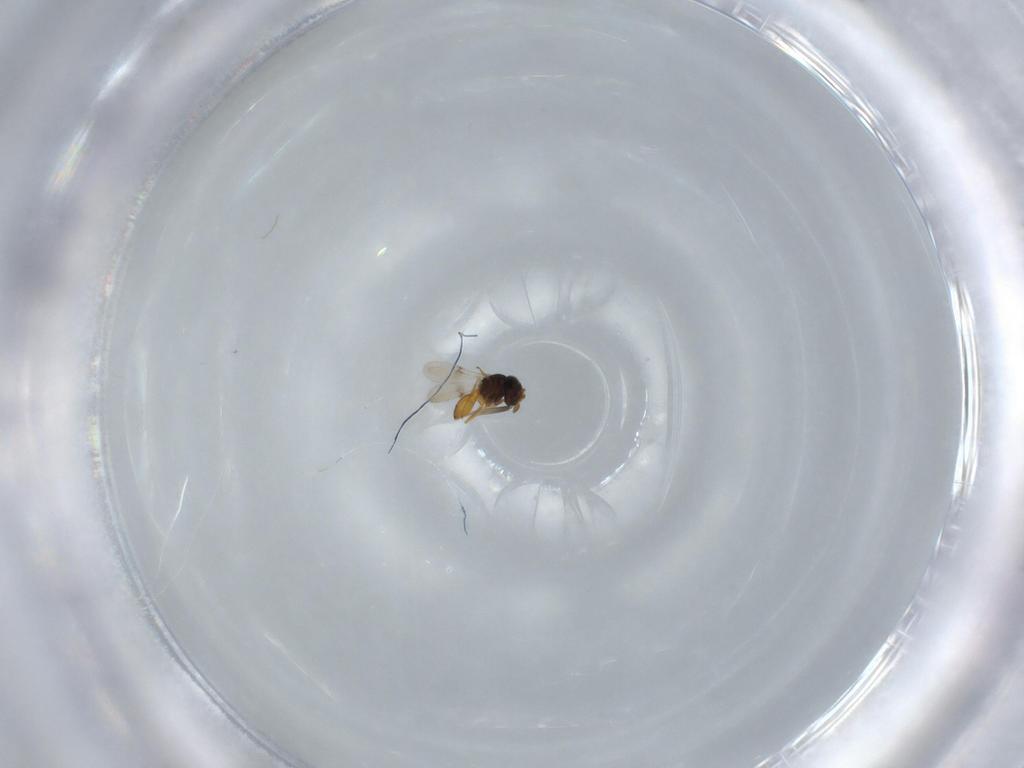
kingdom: Animalia
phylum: Arthropoda
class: Insecta
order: Hymenoptera
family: Scelionidae
